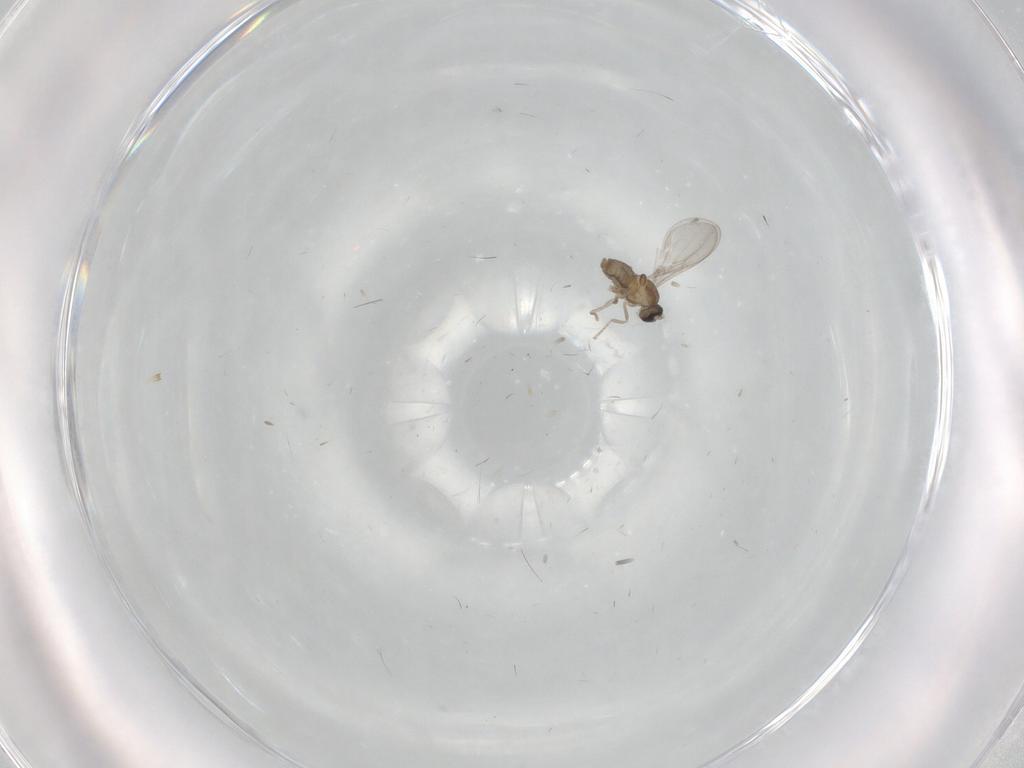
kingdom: Animalia
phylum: Arthropoda
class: Insecta
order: Diptera
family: Cecidomyiidae
